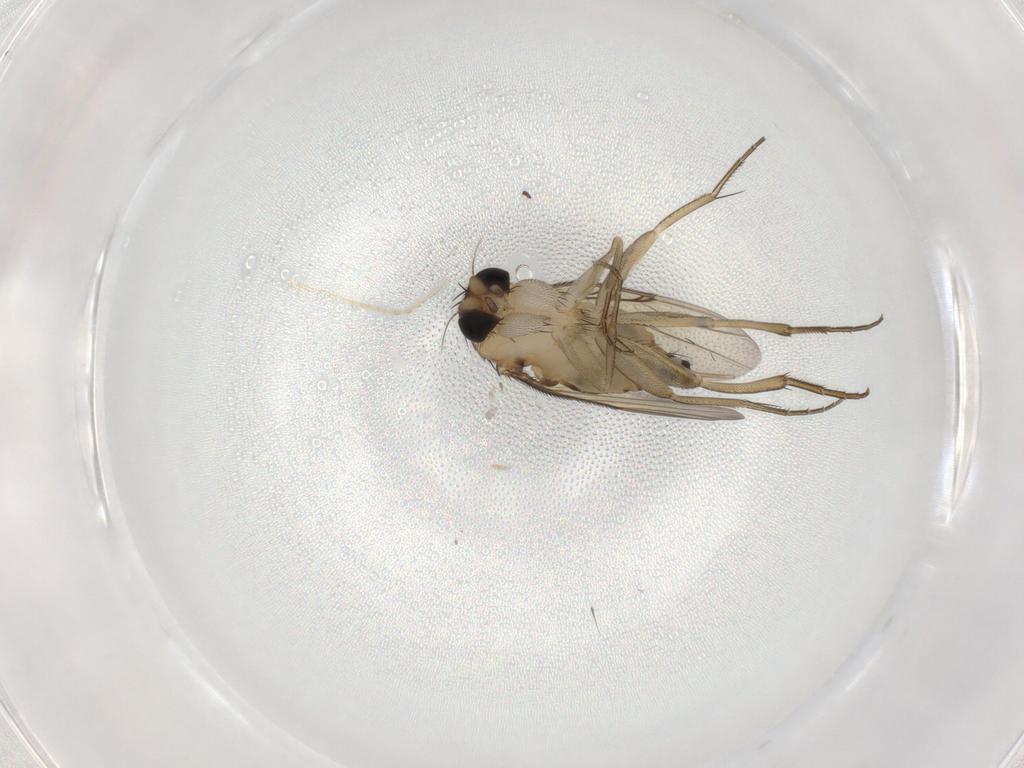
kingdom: Animalia
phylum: Arthropoda
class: Insecta
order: Diptera
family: Phoridae
